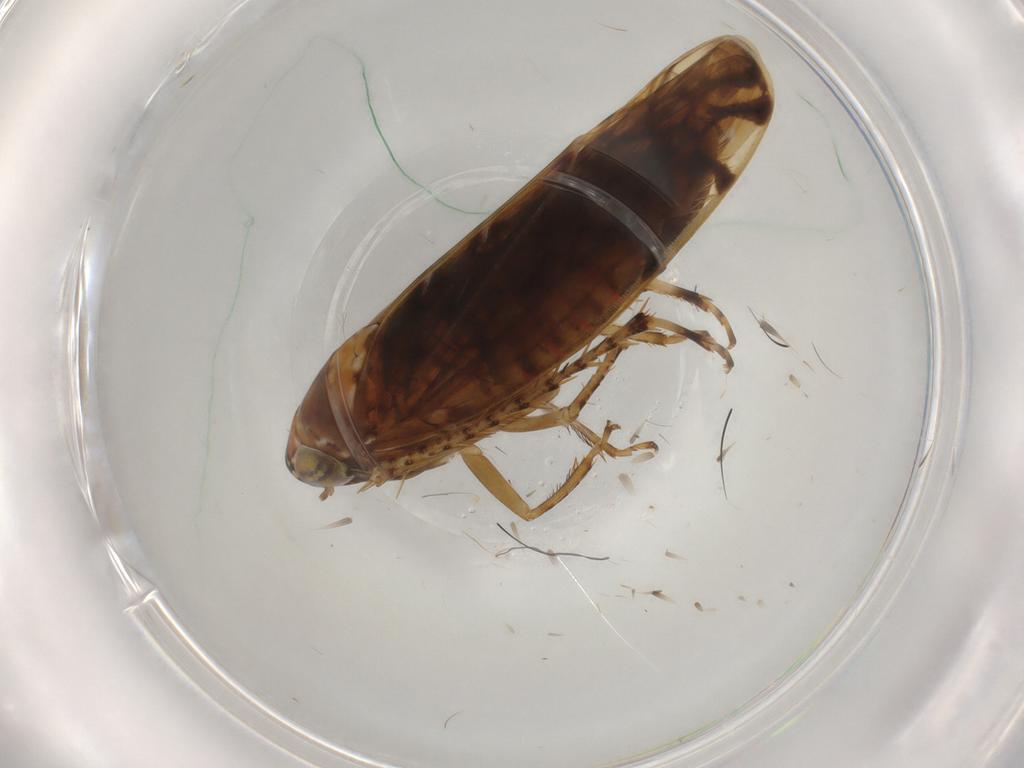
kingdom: Animalia
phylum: Arthropoda
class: Insecta
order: Hemiptera
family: Cicadellidae
